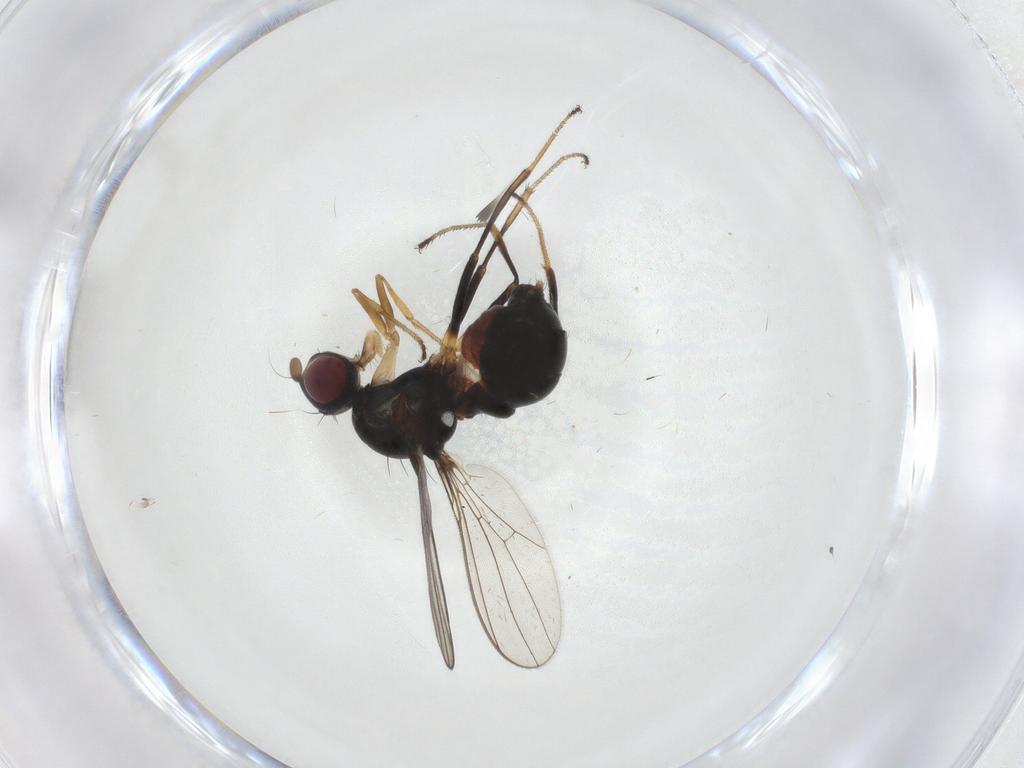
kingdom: Animalia
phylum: Arthropoda
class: Insecta
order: Diptera
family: Sepsidae
